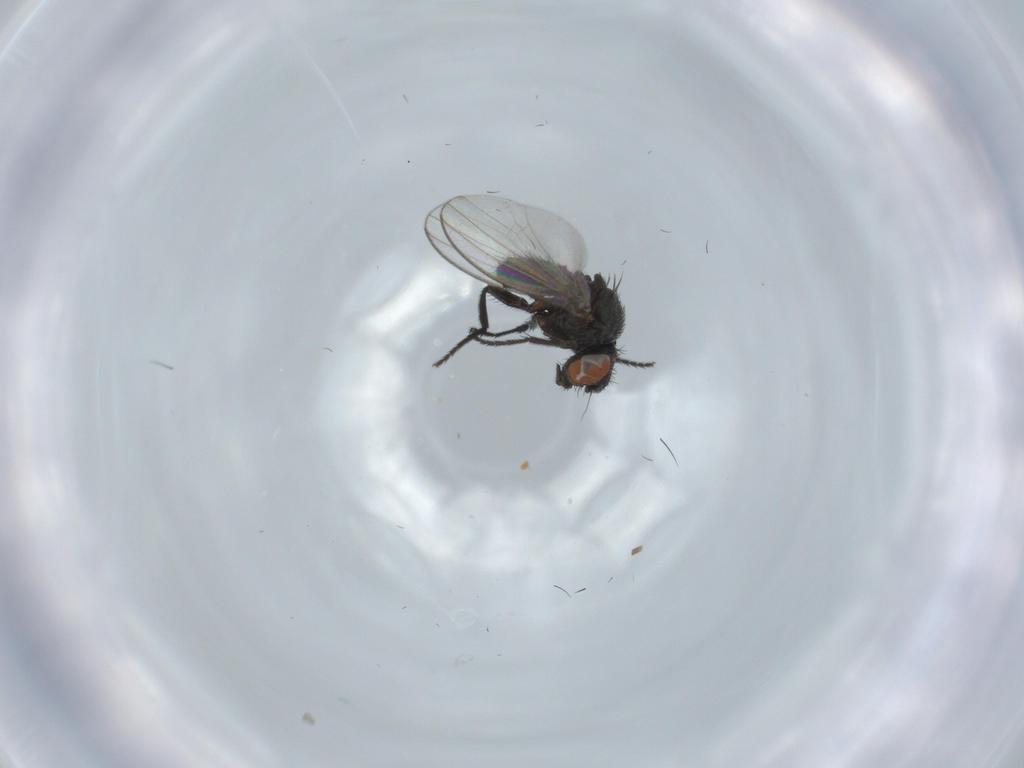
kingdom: Animalia
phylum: Arthropoda
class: Insecta
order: Diptera
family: Milichiidae
